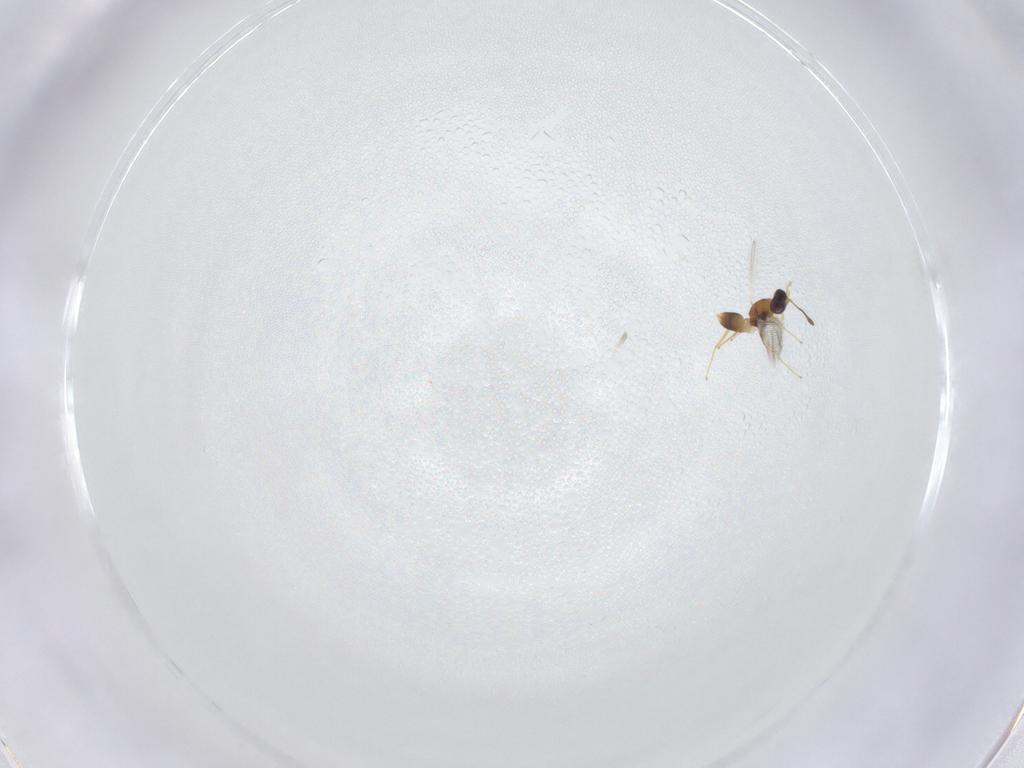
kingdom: Animalia
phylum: Arthropoda
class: Insecta
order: Hymenoptera
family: Mymaridae
